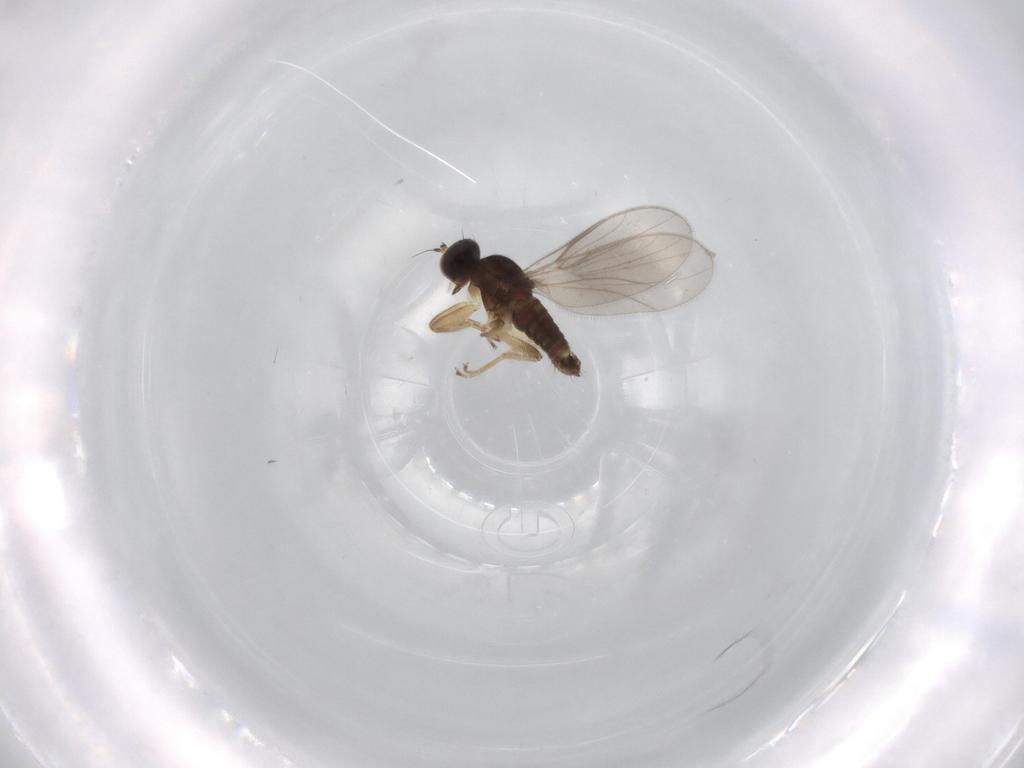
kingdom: Animalia
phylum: Arthropoda
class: Insecta
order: Diptera
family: Hybotidae
